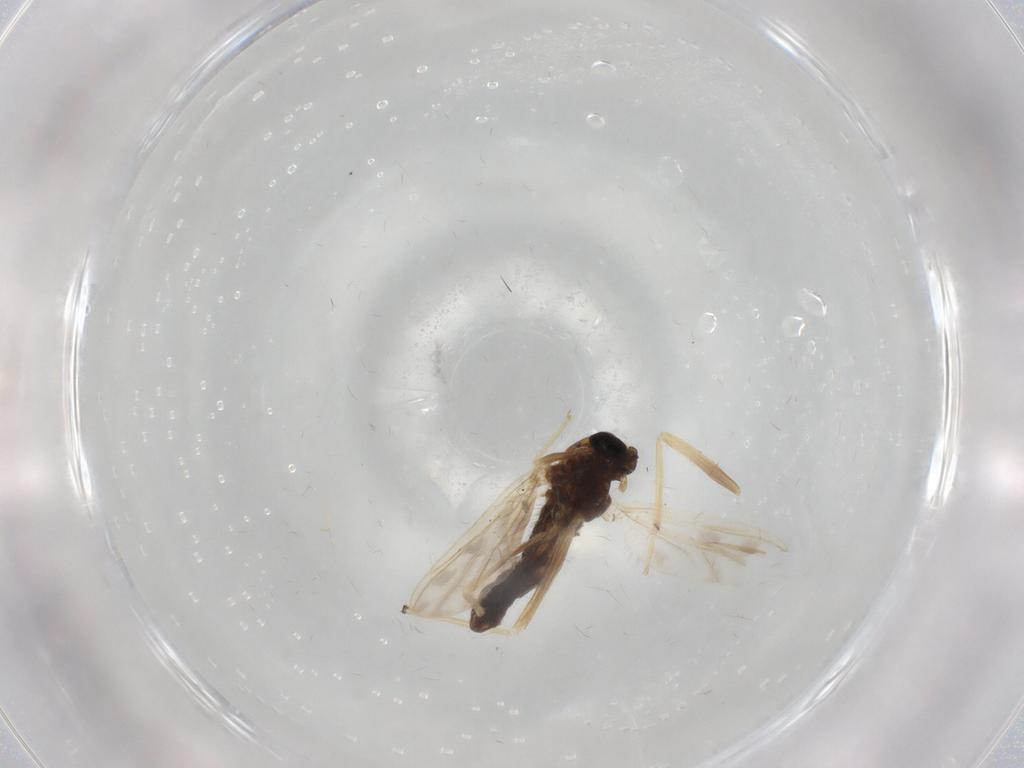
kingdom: Animalia
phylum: Arthropoda
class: Insecta
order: Diptera
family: Chironomidae
